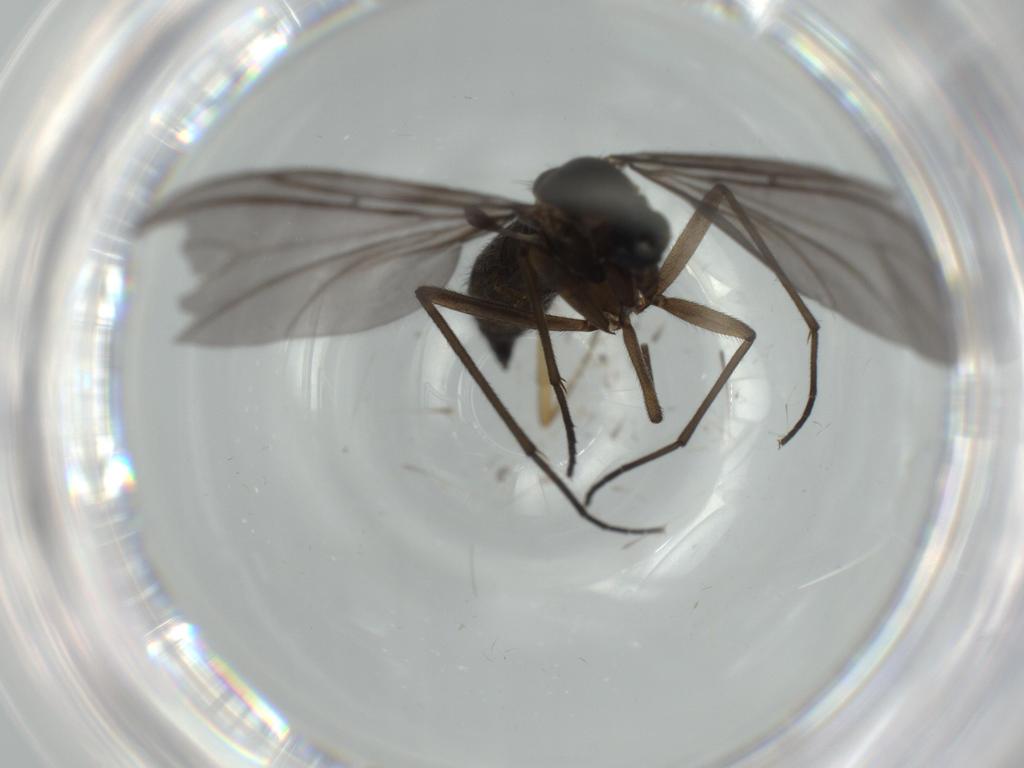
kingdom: Animalia
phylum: Arthropoda
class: Insecta
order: Diptera
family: Sciaridae
